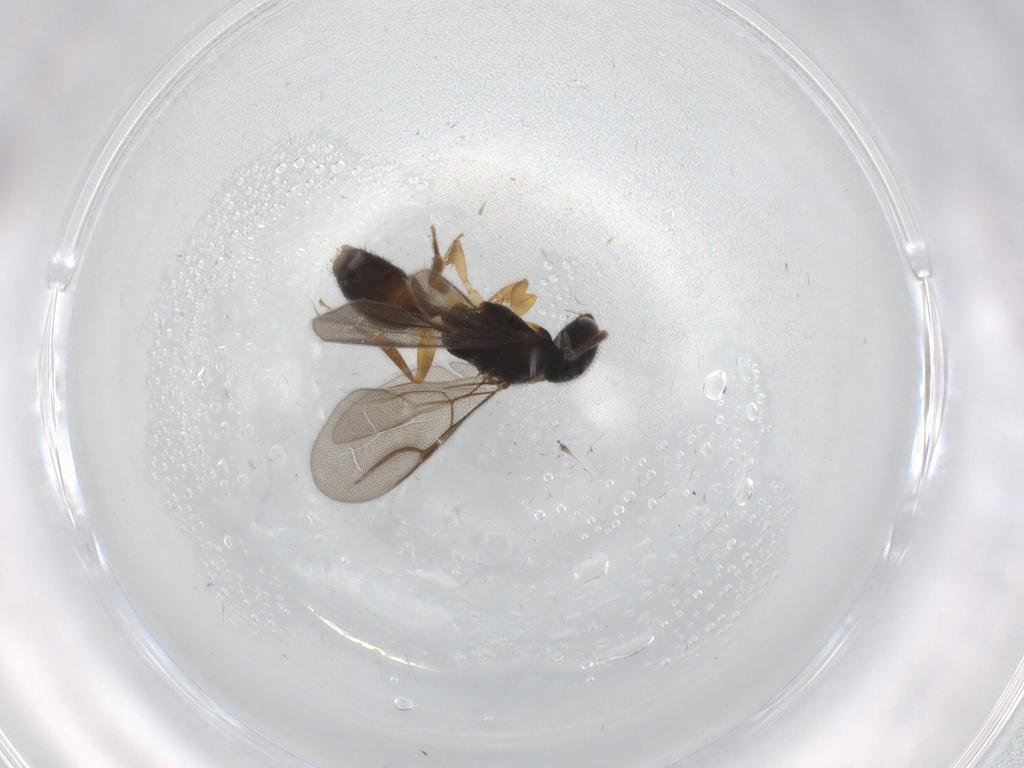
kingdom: Animalia
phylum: Arthropoda
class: Insecta
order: Hymenoptera
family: Bethylidae
